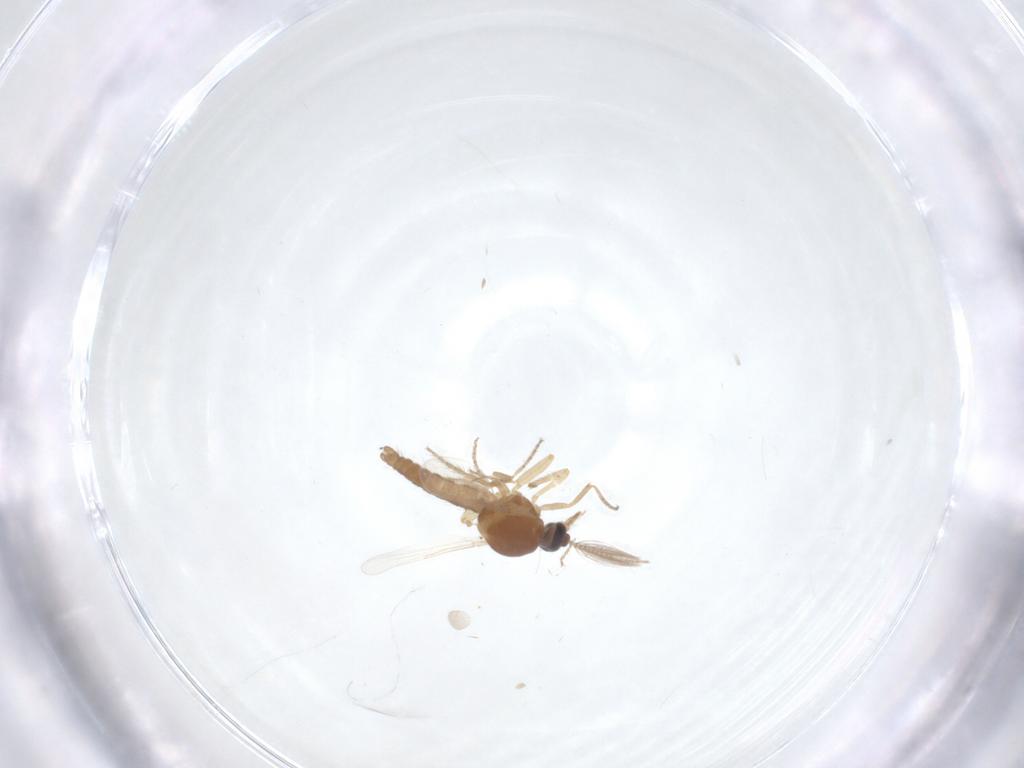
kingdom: Animalia
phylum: Arthropoda
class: Insecta
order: Diptera
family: Ceratopogonidae
